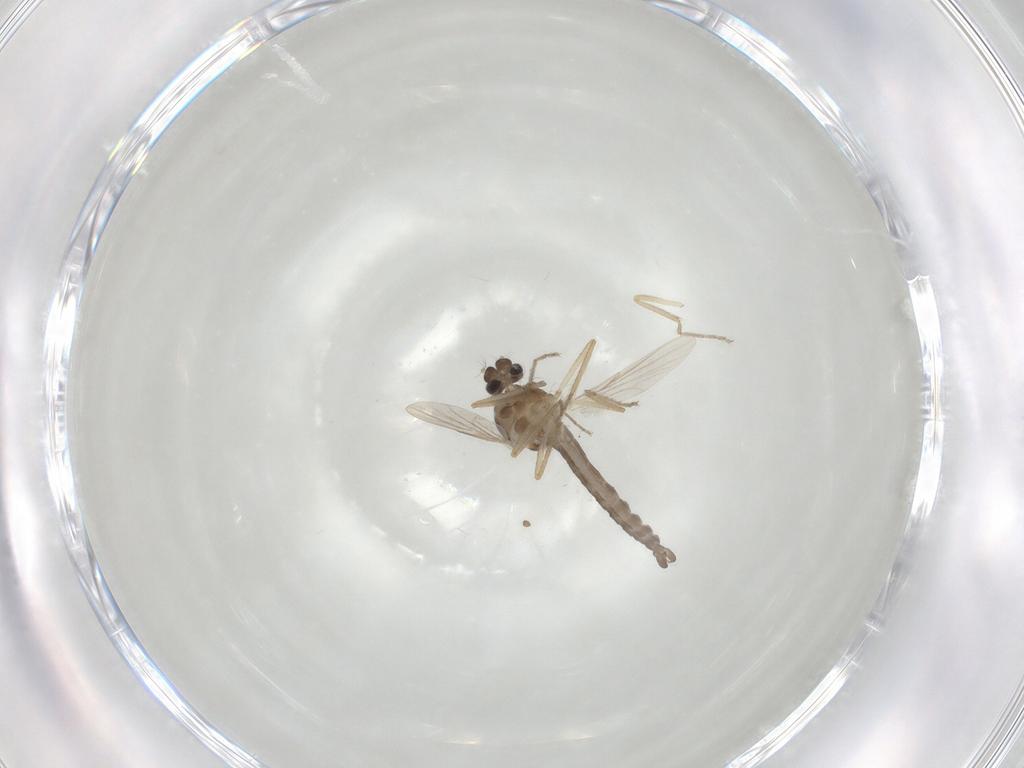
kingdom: Animalia
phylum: Arthropoda
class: Insecta
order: Diptera
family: Ceratopogonidae
